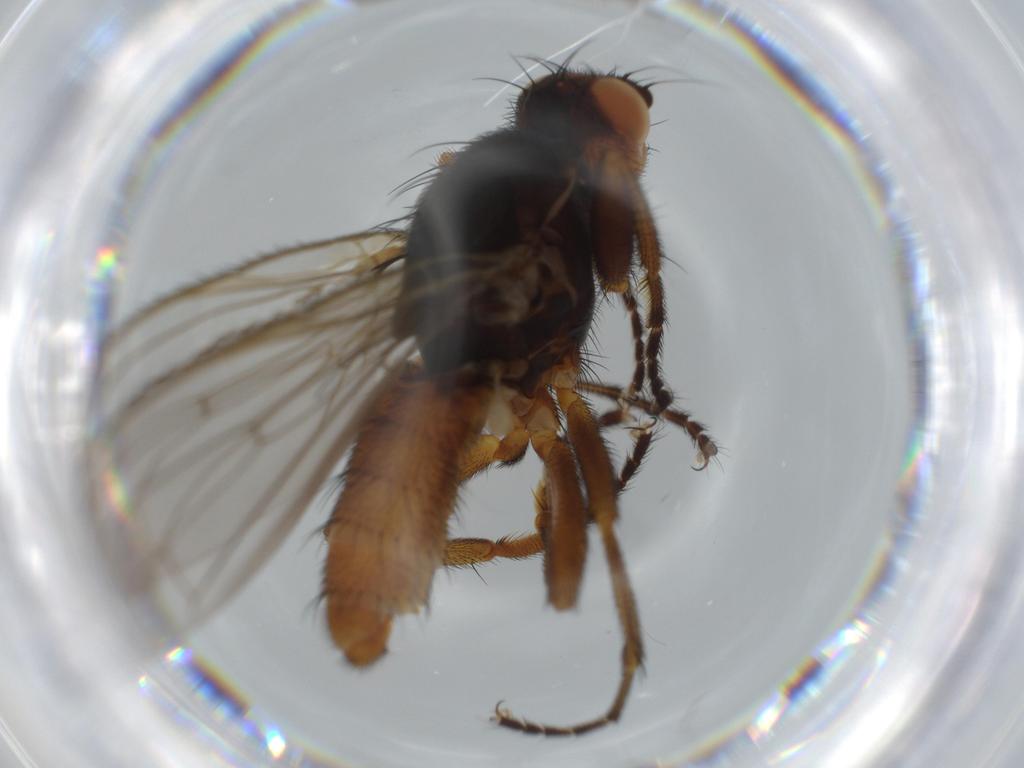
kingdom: Animalia
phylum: Arthropoda
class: Insecta
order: Diptera
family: Heleomyzidae
